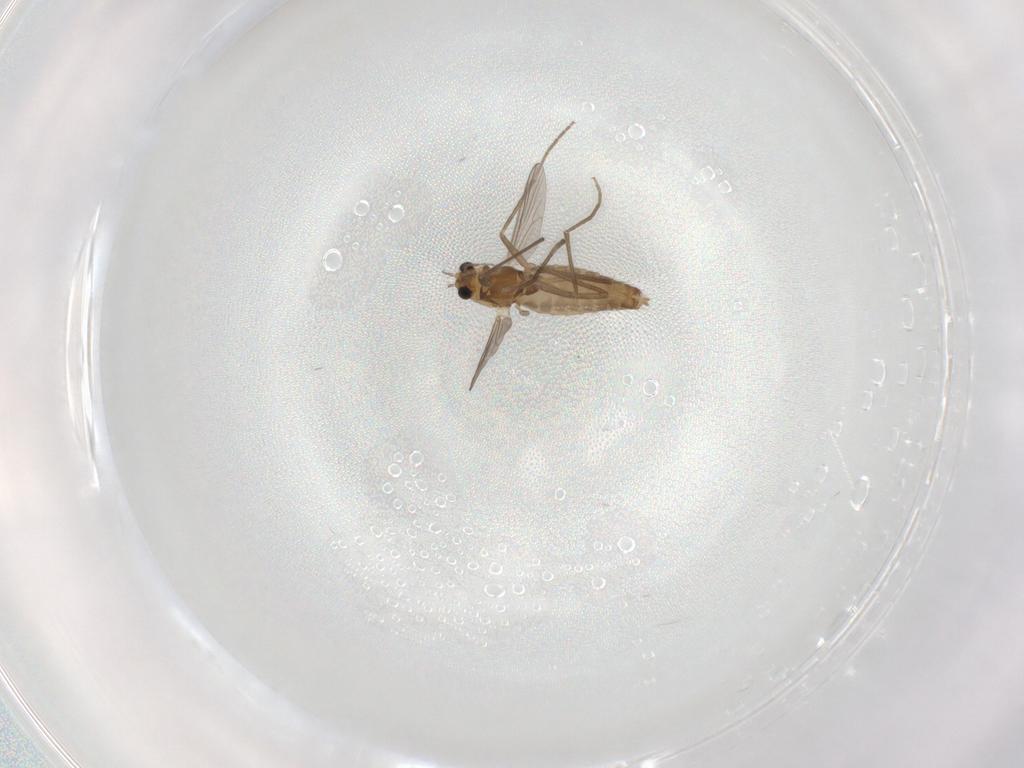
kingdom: Animalia
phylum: Arthropoda
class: Insecta
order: Diptera
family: Chironomidae
